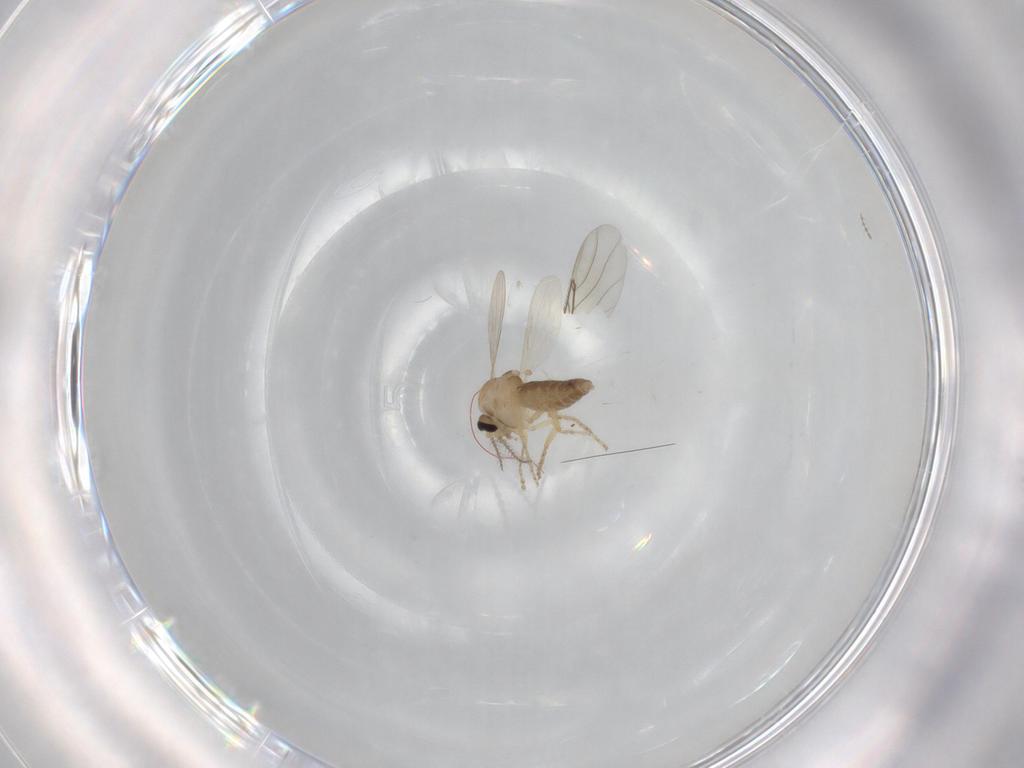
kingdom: Animalia
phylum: Arthropoda
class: Insecta
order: Diptera
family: Ceratopogonidae
